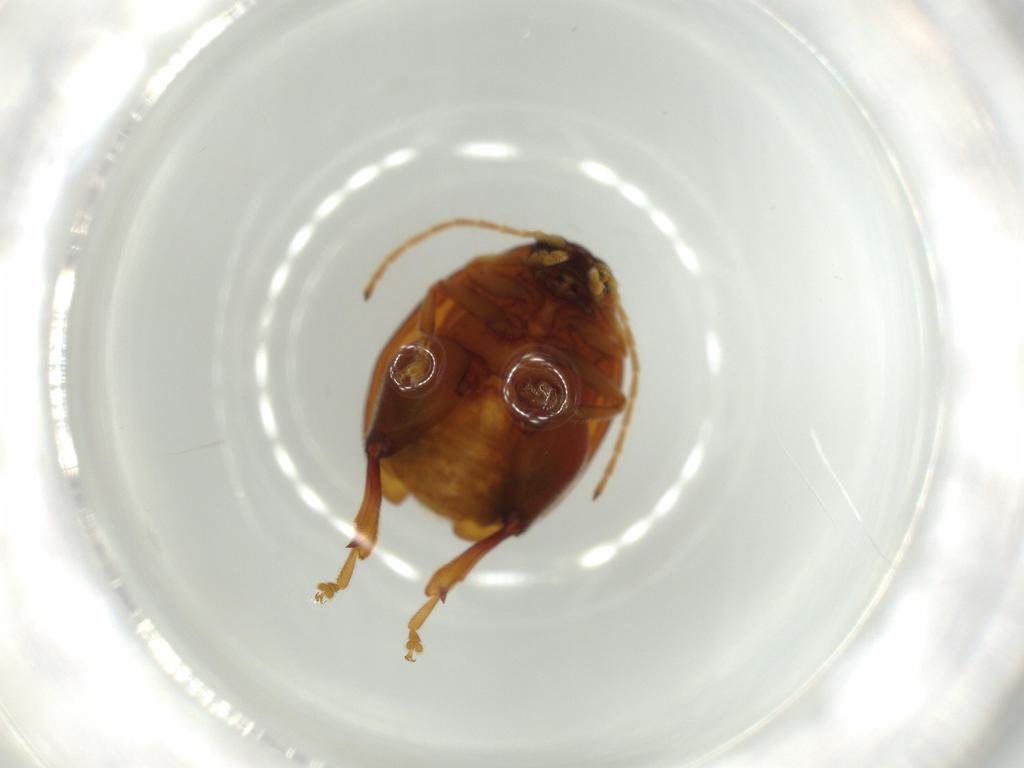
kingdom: Animalia
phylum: Arthropoda
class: Insecta
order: Coleoptera
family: Chrysomelidae
